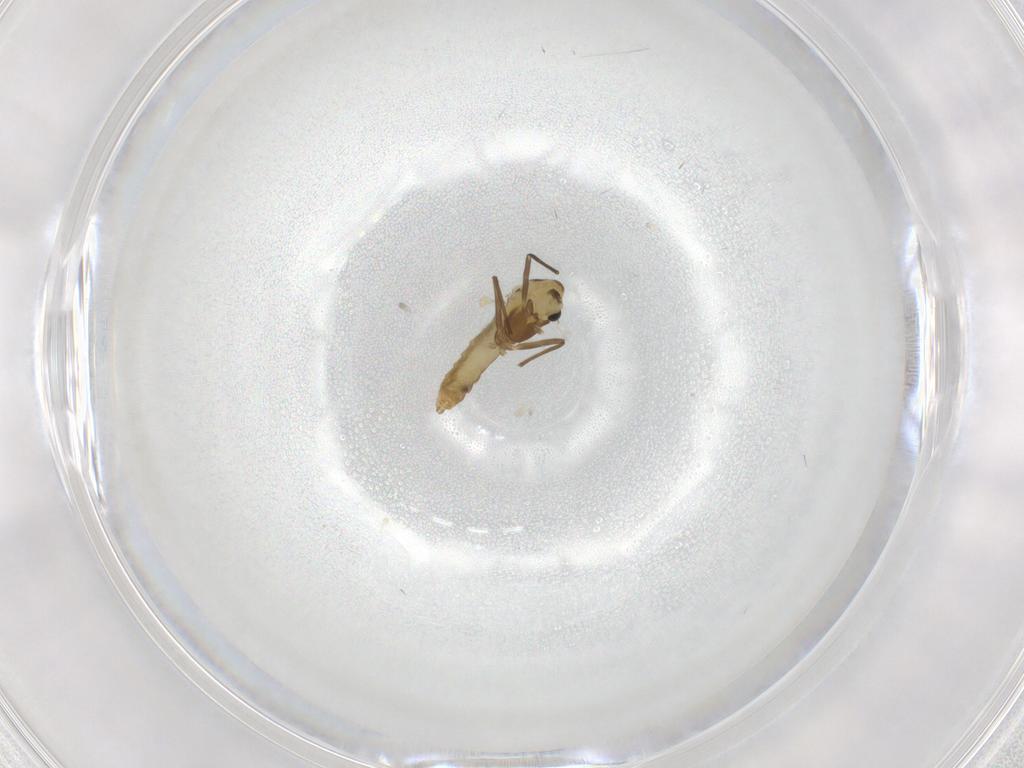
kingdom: Animalia
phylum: Arthropoda
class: Insecta
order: Diptera
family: Chironomidae
